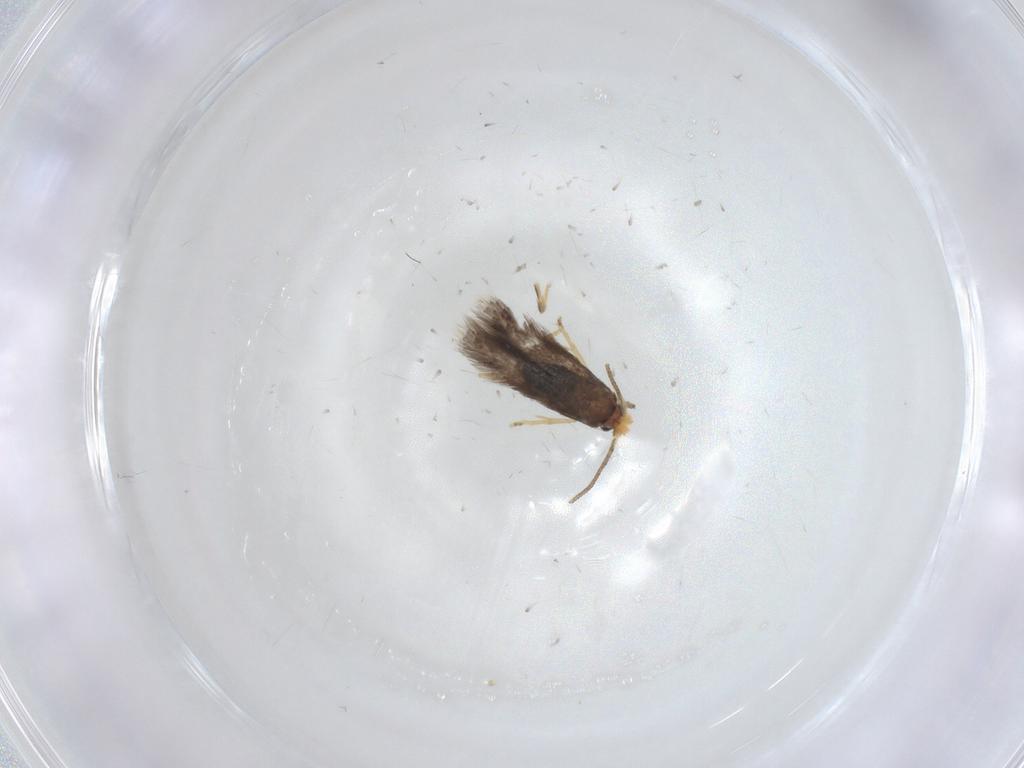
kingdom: Animalia
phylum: Arthropoda
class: Insecta
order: Lepidoptera
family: Nepticulidae
